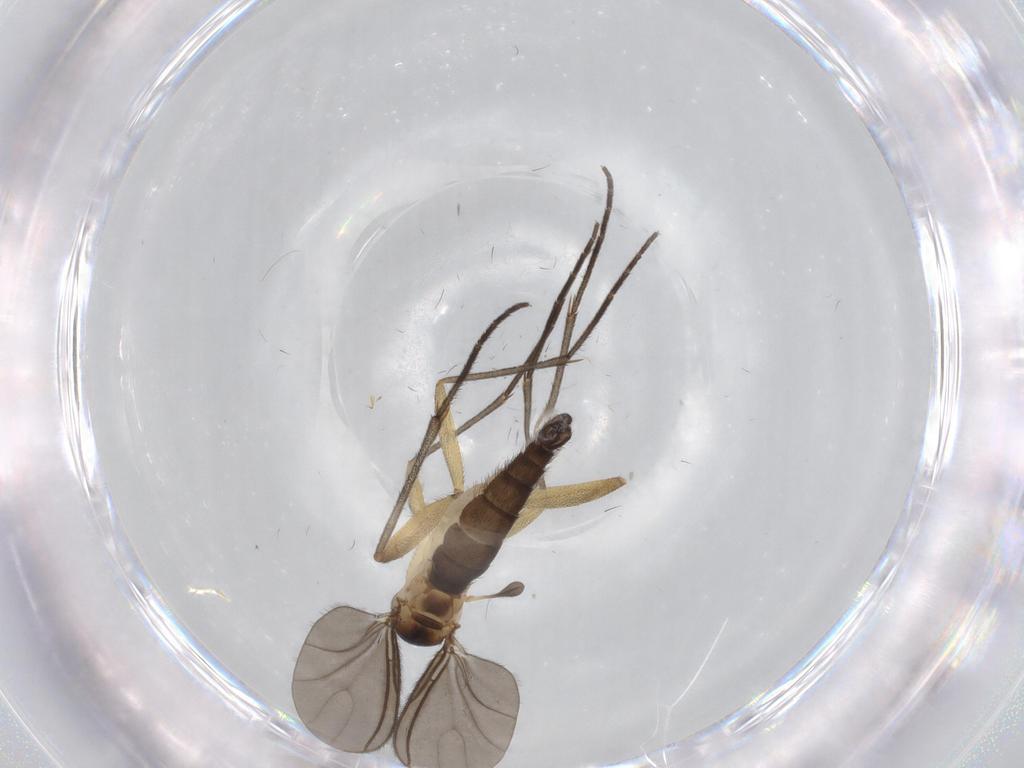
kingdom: Animalia
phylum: Arthropoda
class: Insecta
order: Diptera
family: Sciaridae
